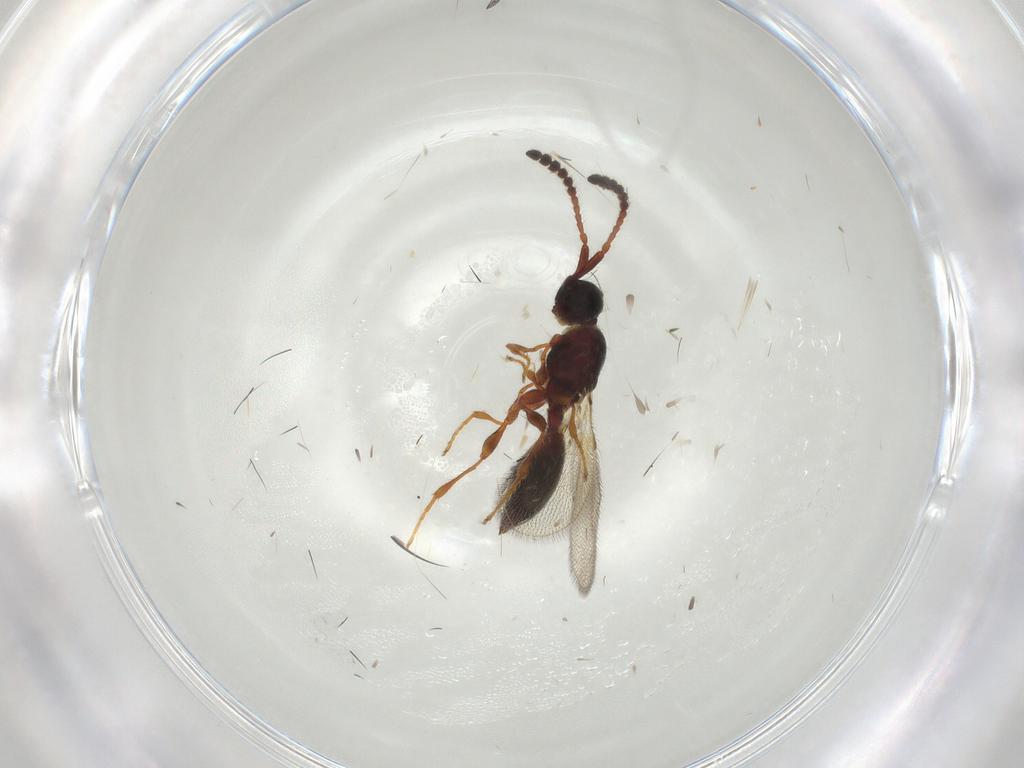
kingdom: Animalia
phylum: Arthropoda
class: Insecta
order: Hymenoptera
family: Diapriidae
